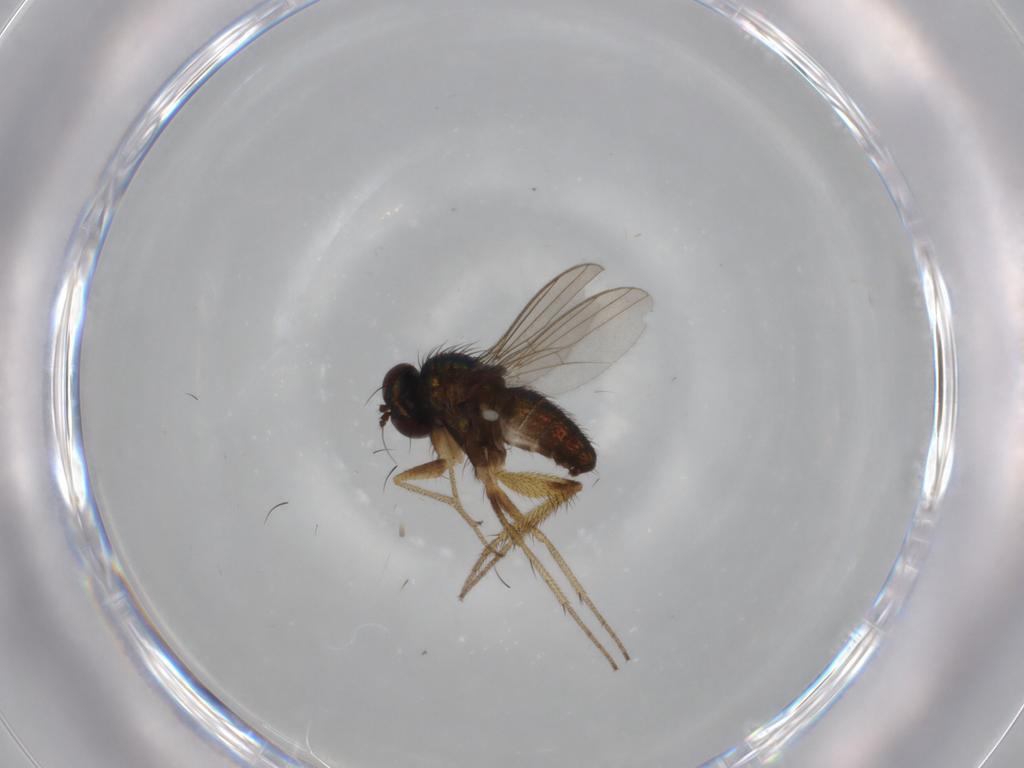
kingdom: Animalia
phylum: Arthropoda
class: Insecta
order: Diptera
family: Dolichopodidae
